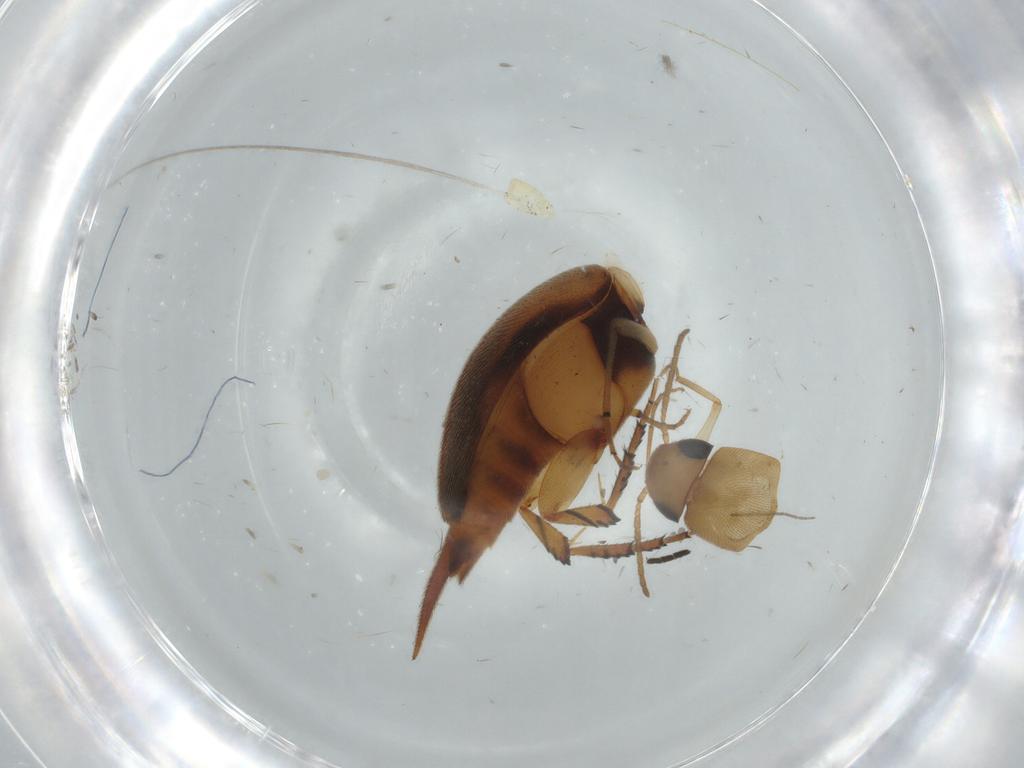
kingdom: Animalia
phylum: Arthropoda
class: Insecta
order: Coleoptera
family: Mordellidae
